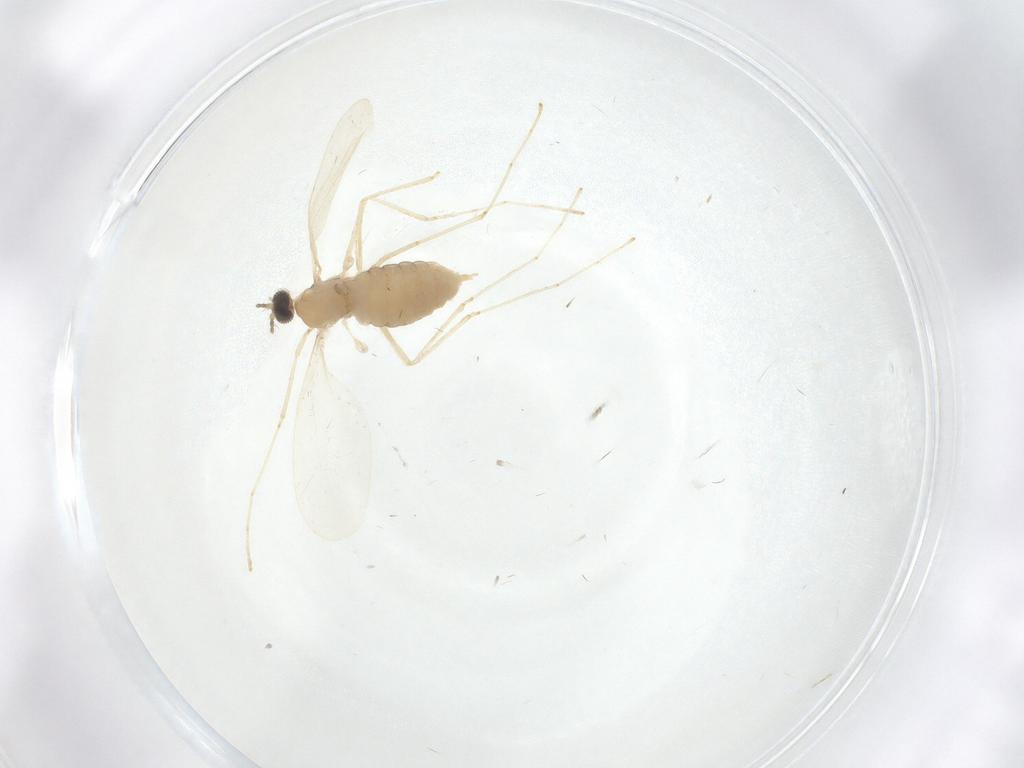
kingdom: Animalia
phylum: Arthropoda
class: Insecta
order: Diptera
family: Cecidomyiidae
